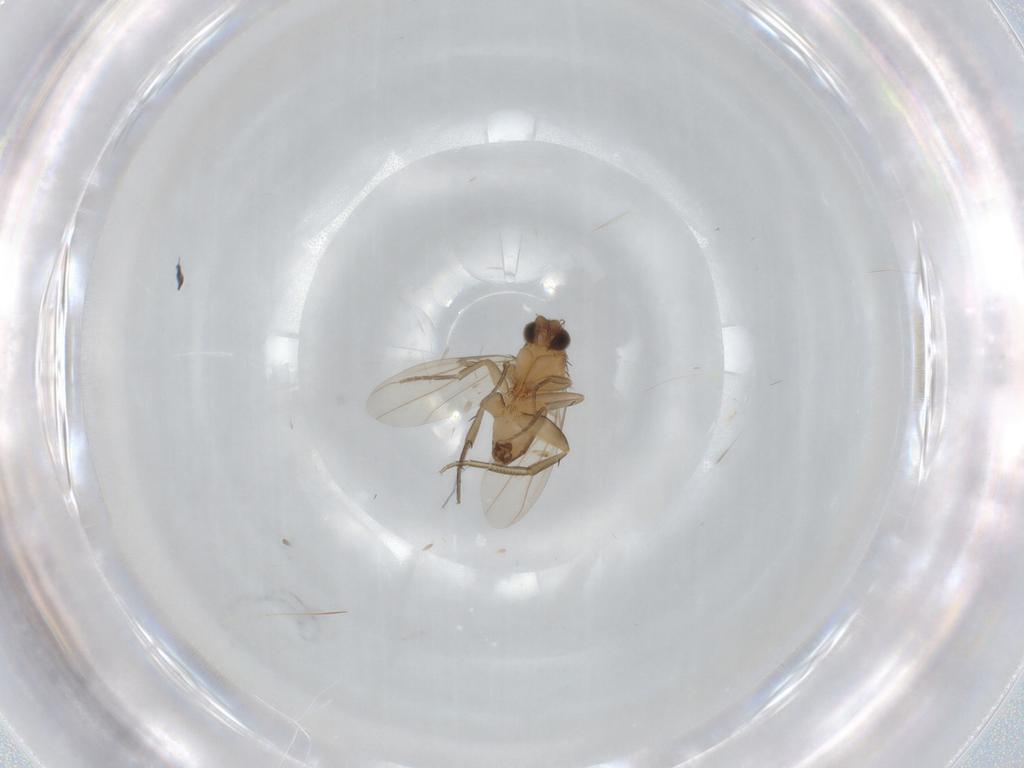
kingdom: Animalia
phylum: Arthropoda
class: Insecta
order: Diptera
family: Phoridae
